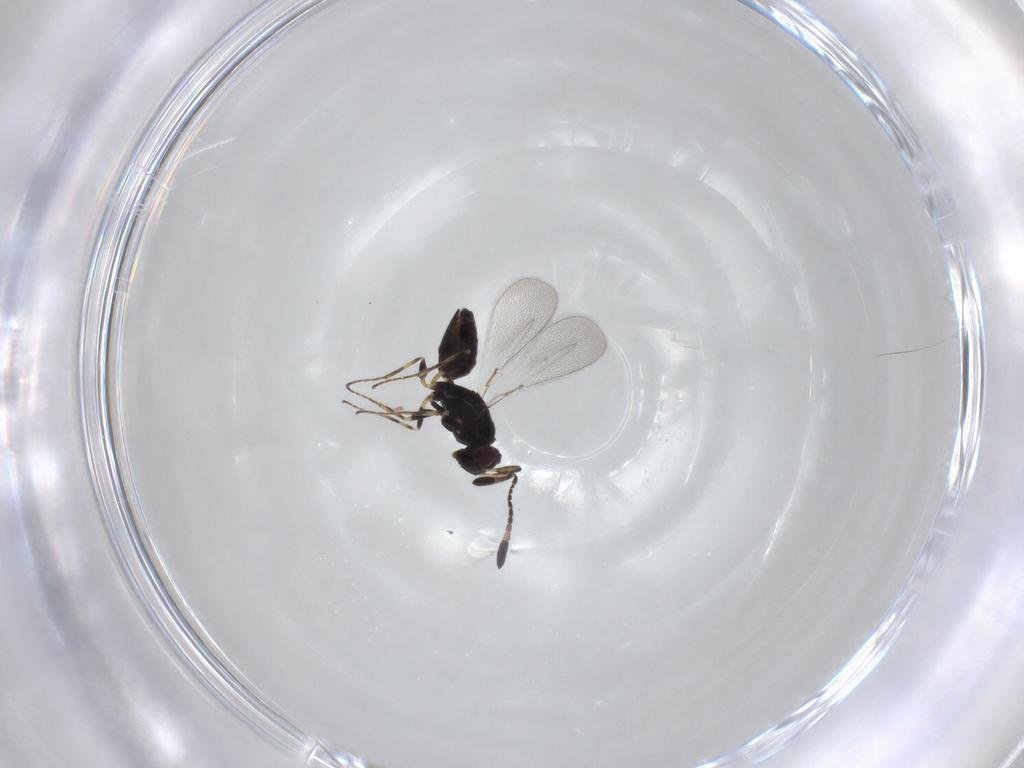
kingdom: Animalia
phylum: Arthropoda
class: Insecta
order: Hymenoptera
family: Mymaridae
